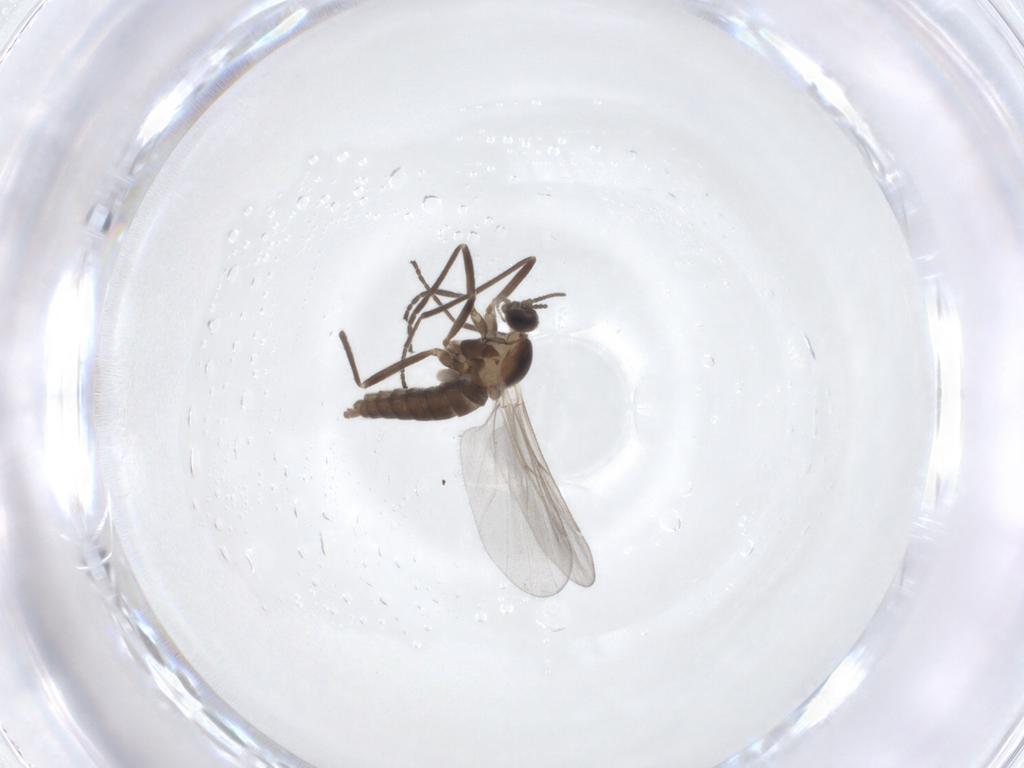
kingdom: Animalia
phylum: Arthropoda
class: Insecta
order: Diptera
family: Cecidomyiidae
